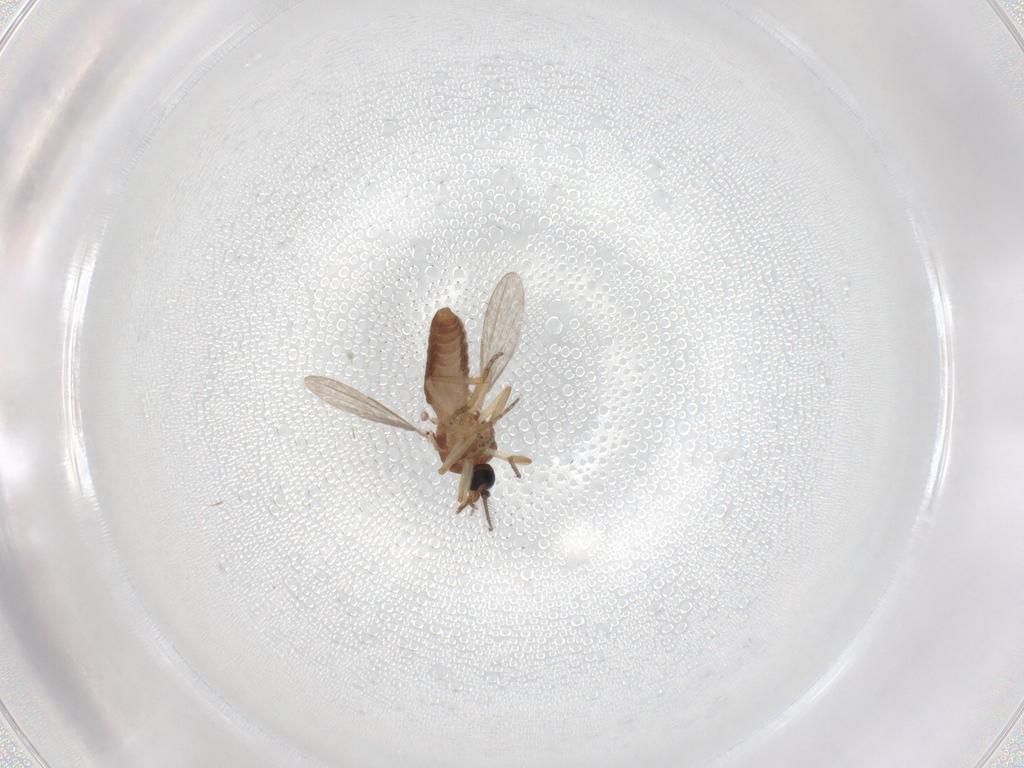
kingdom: Animalia
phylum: Arthropoda
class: Insecta
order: Diptera
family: Ceratopogonidae
